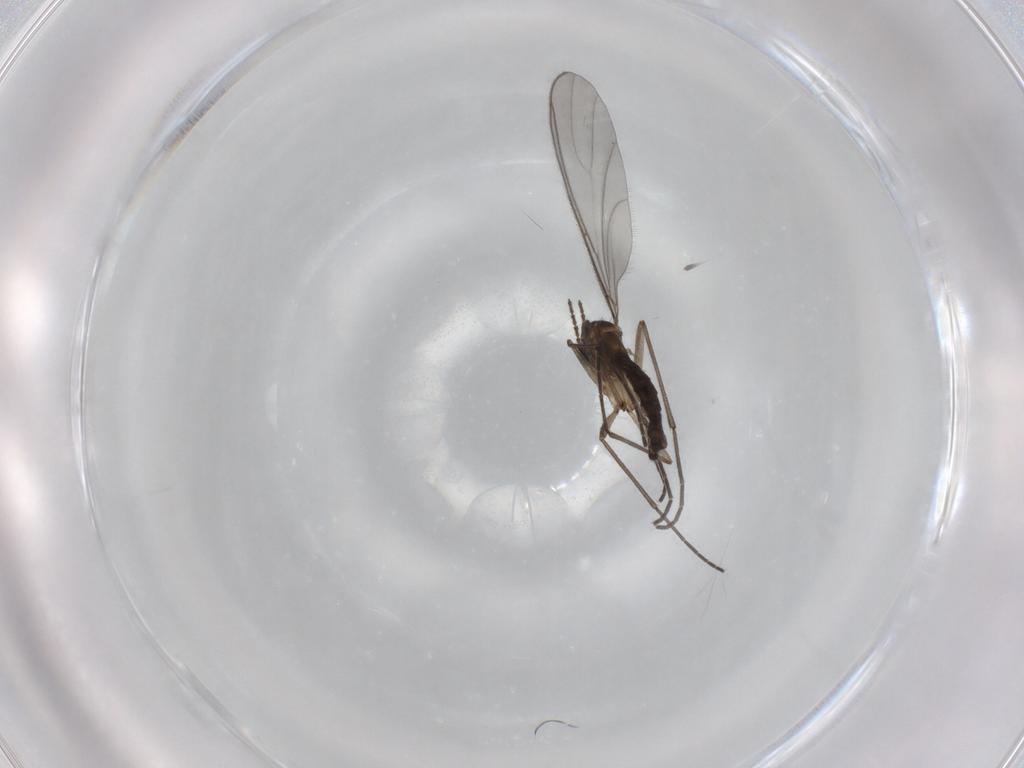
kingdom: Animalia
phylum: Arthropoda
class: Insecta
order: Diptera
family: Sciaridae
